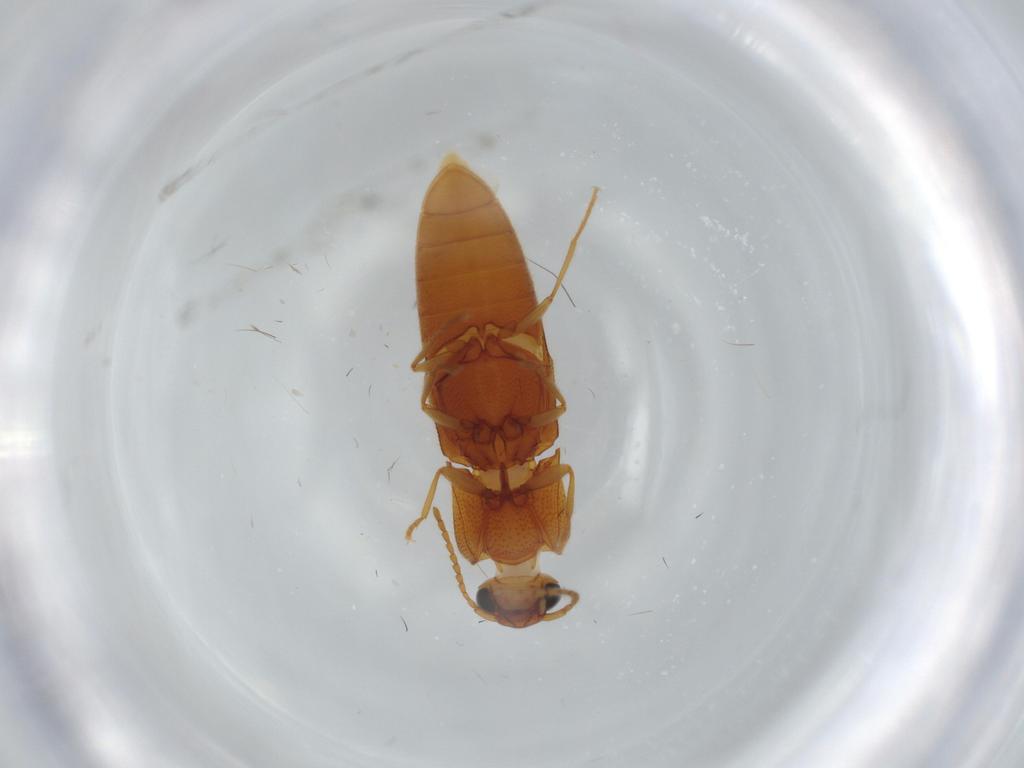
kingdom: Animalia
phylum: Arthropoda
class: Insecta
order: Coleoptera
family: Elateridae
